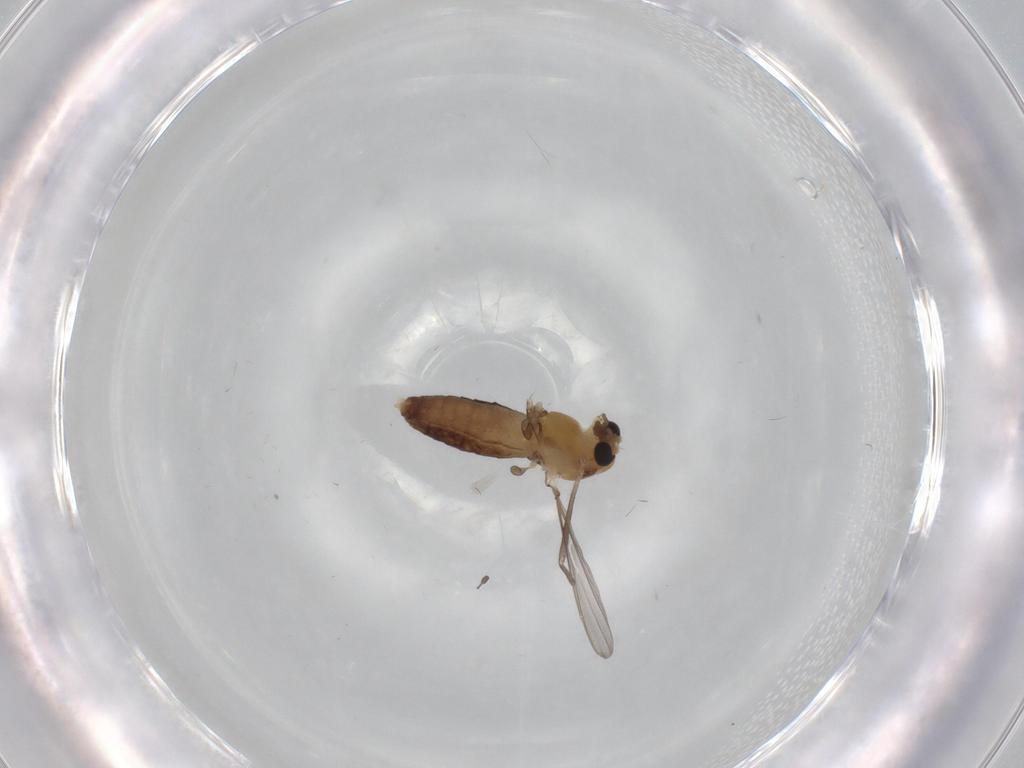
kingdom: Animalia
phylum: Arthropoda
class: Insecta
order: Diptera
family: Chironomidae
